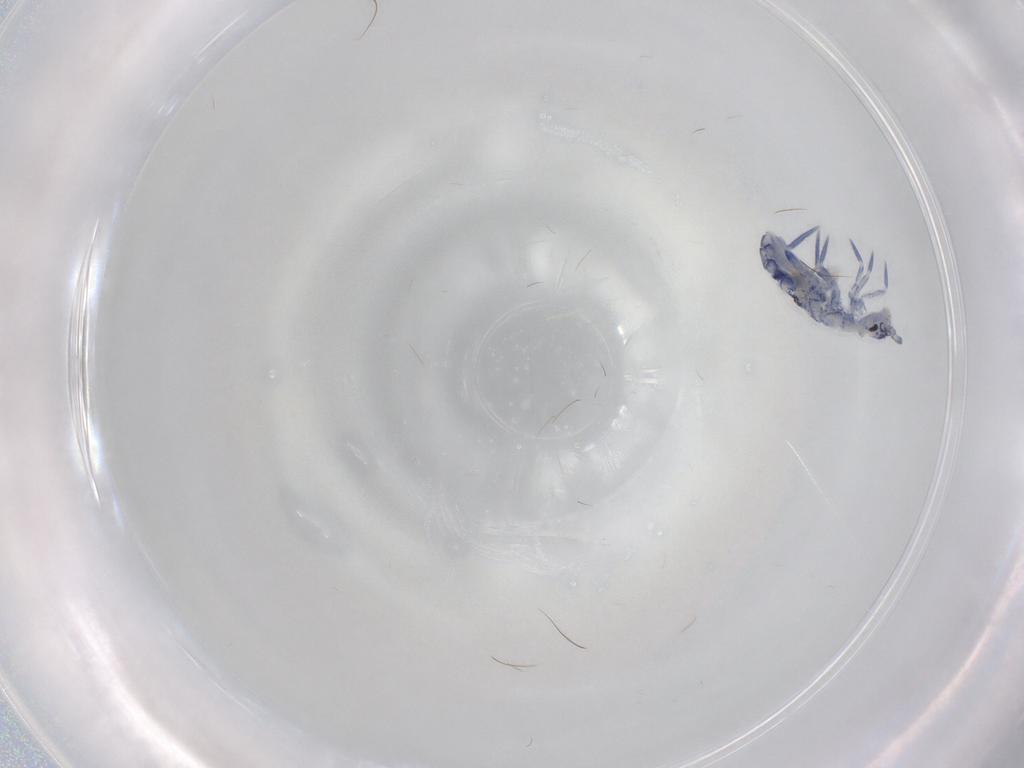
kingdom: Animalia
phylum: Arthropoda
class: Collembola
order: Entomobryomorpha
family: Entomobryidae
